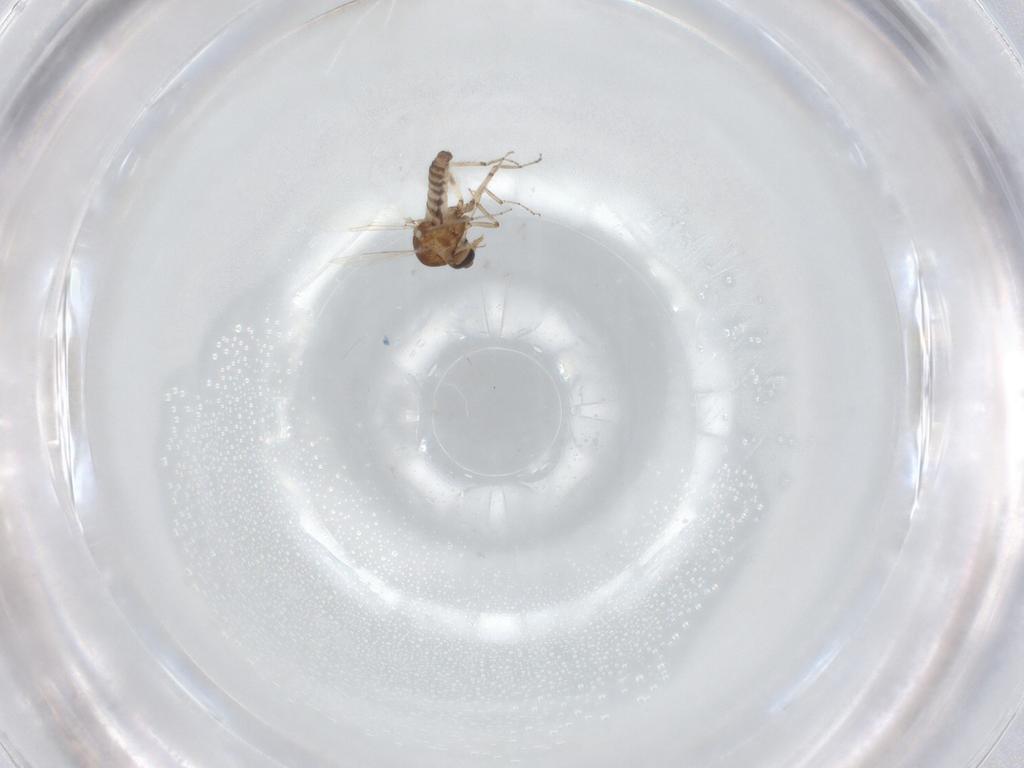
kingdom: Animalia
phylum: Arthropoda
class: Insecta
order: Diptera
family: Ceratopogonidae
